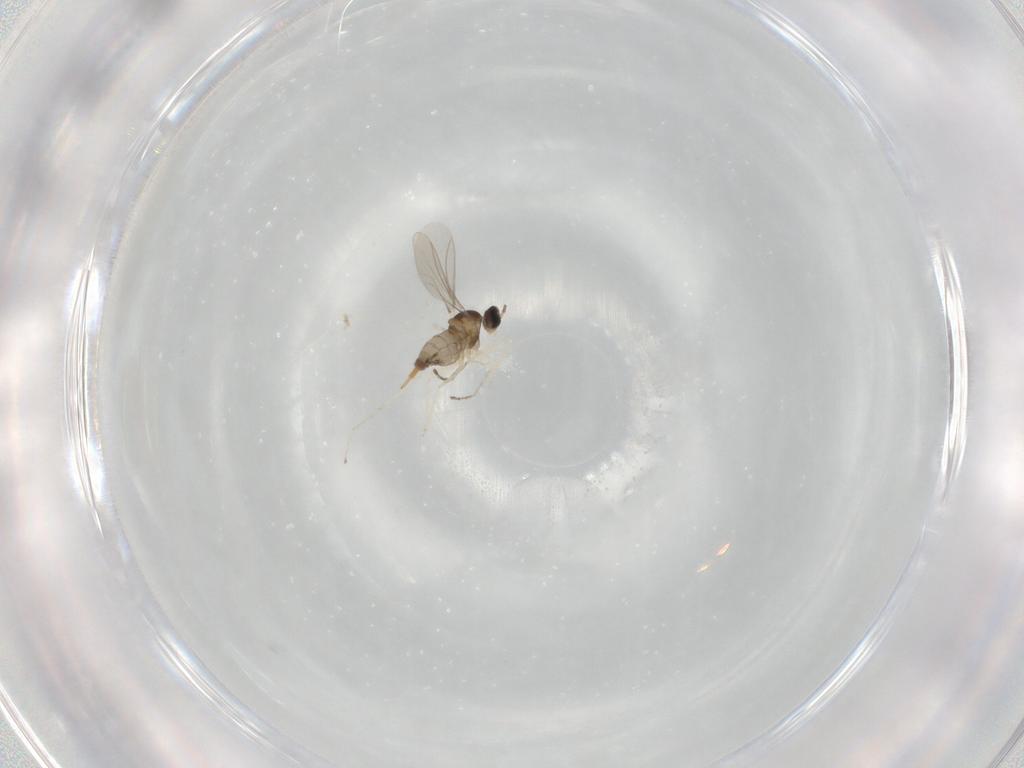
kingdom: Animalia
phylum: Arthropoda
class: Insecta
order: Diptera
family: Cecidomyiidae
